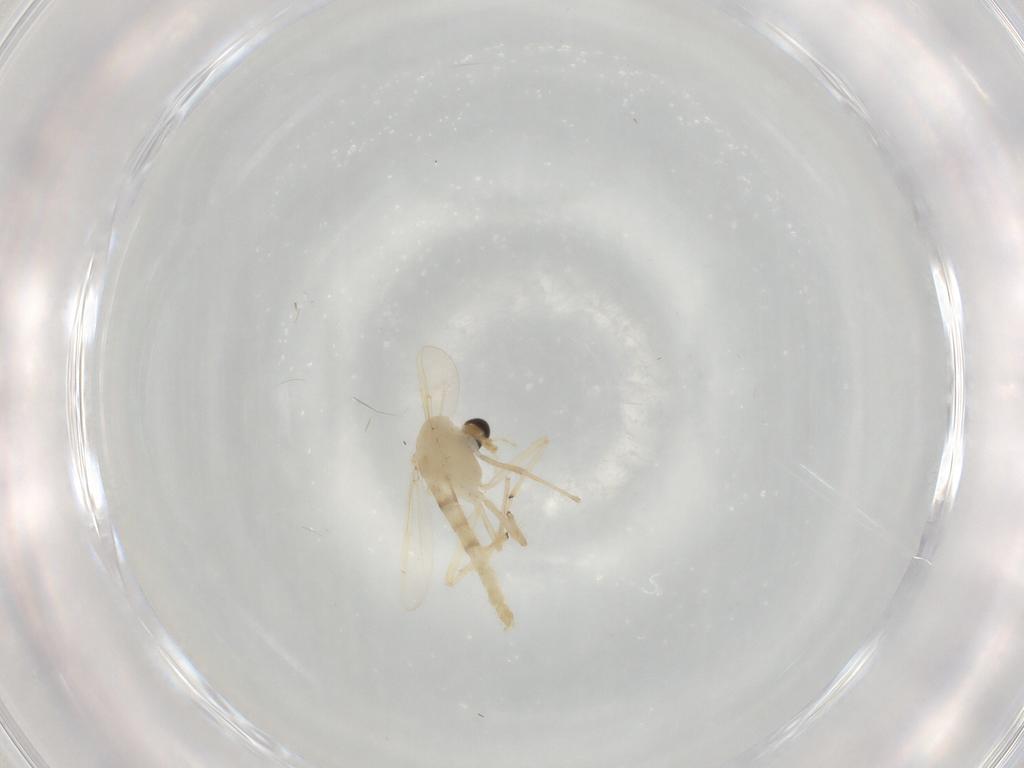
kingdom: Animalia
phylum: Arthropoda
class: Insecta
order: Diptera
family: Chironomidae
